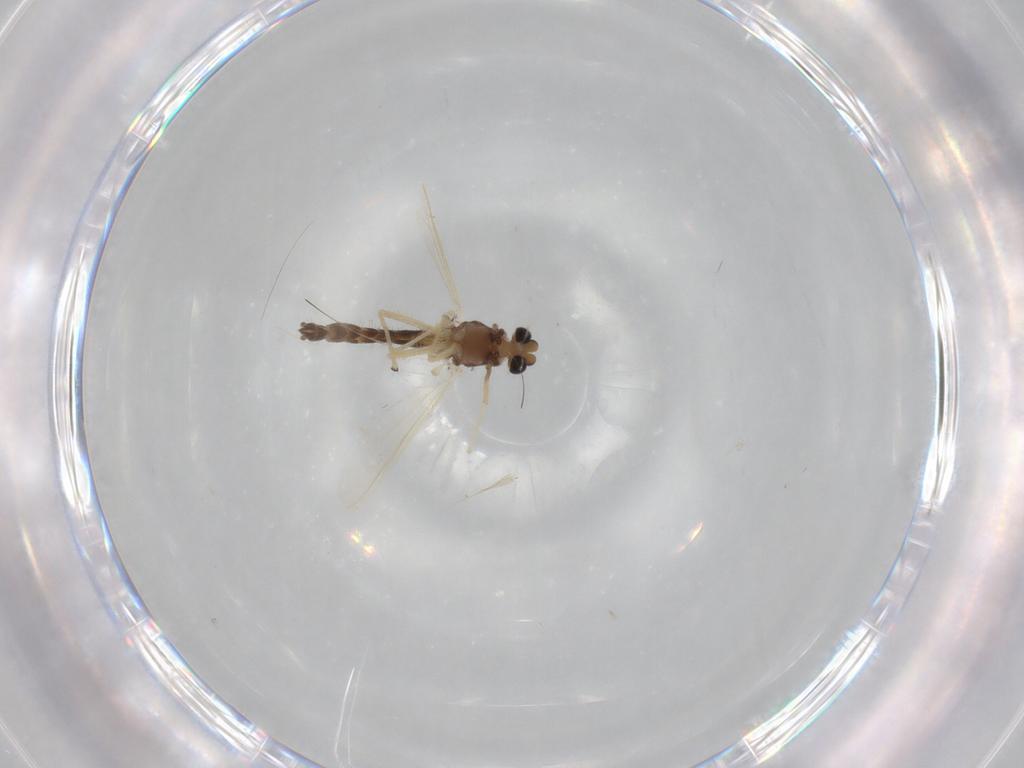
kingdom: Animalia
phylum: Arthropoda
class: Insecta
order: Diptera
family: Chironomidae
